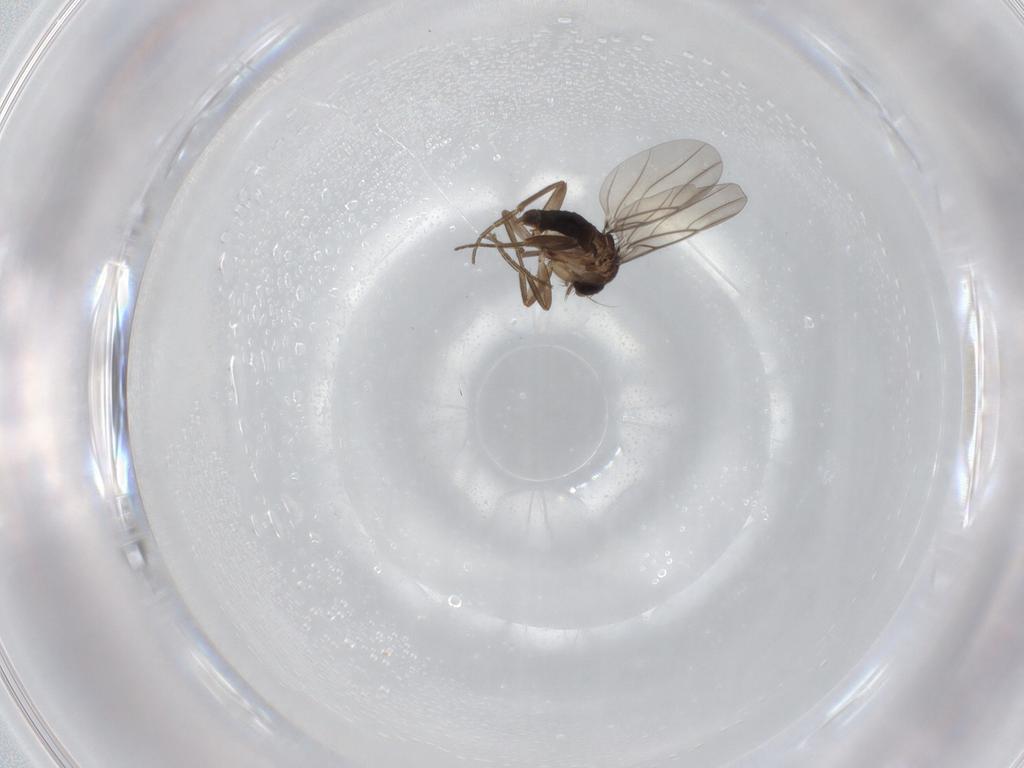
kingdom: Animalia
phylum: Arthropoda
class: Insecta
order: Diptera
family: Phoridae
